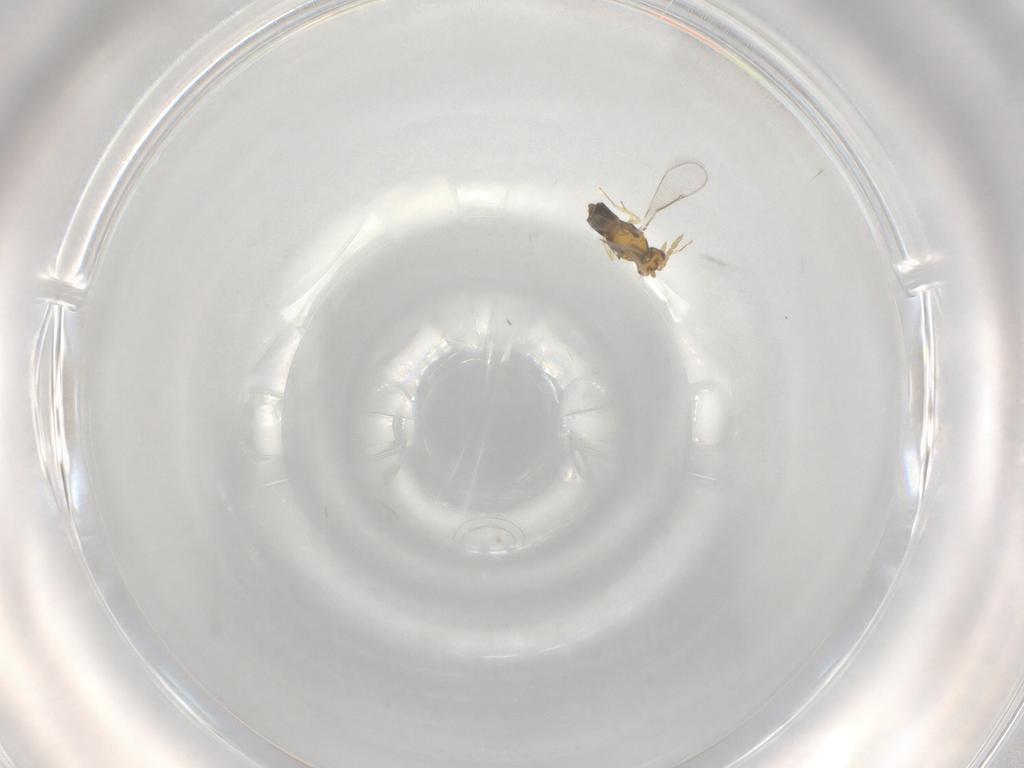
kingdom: Animalia
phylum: Arthropoda
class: Insecta
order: Hymenoptera
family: Aphelinidae
